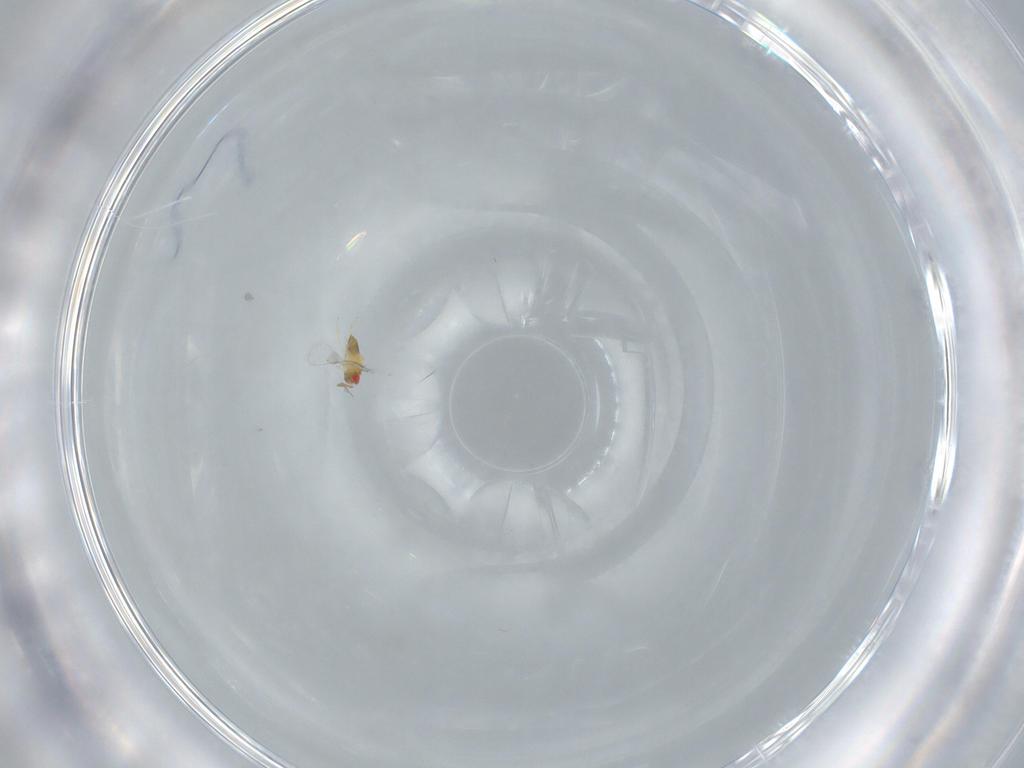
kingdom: Animalia
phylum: Arthropoda
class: Insecta
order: Hymenoptera
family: Trichogrammatidae
